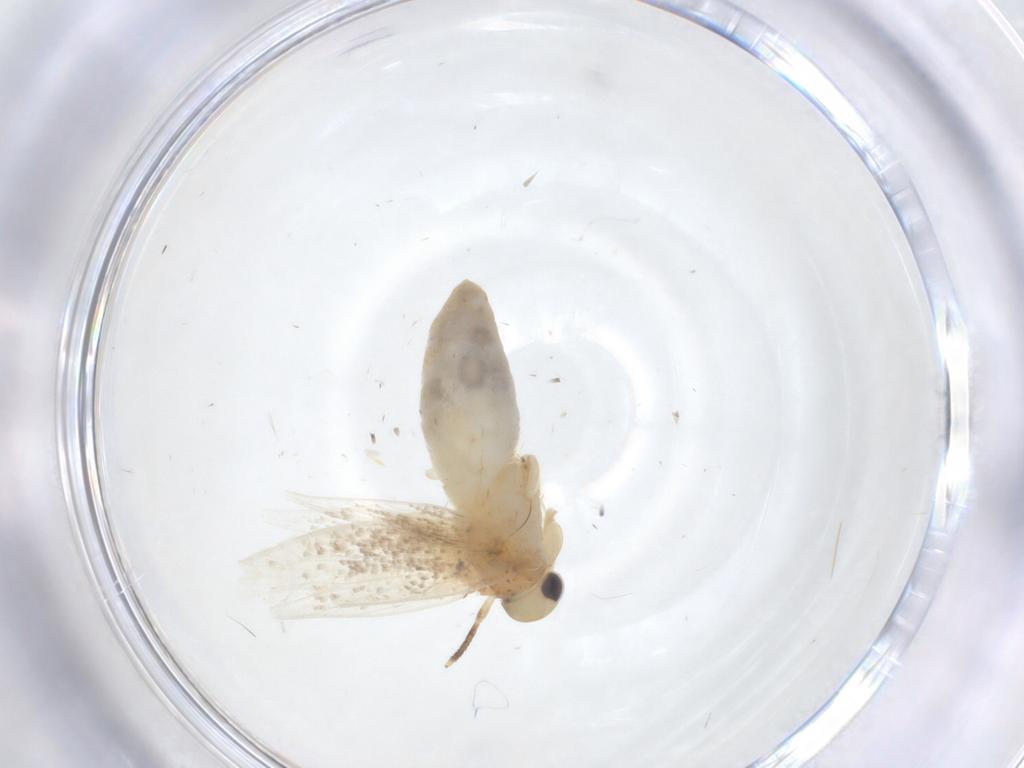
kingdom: Animalia
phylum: Arthropoda
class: Insecta
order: Lepidoptera
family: Erebidae
